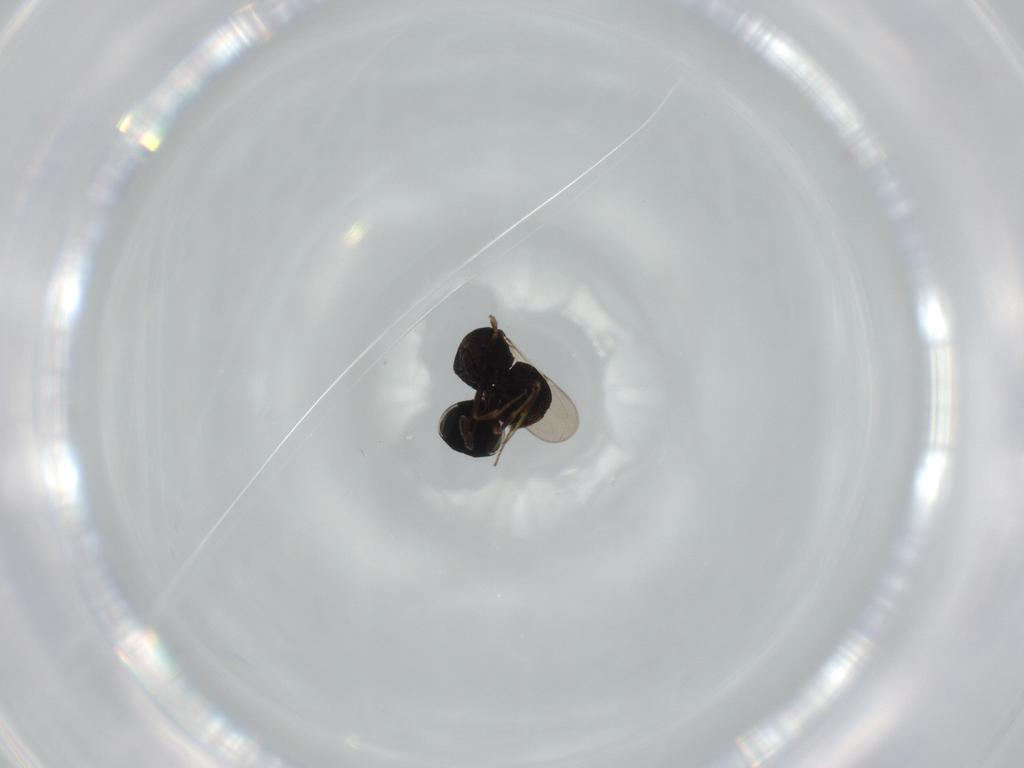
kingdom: Animalia
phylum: Arthropoda
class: Insecta
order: Hymenoptera
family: Scelionidae
